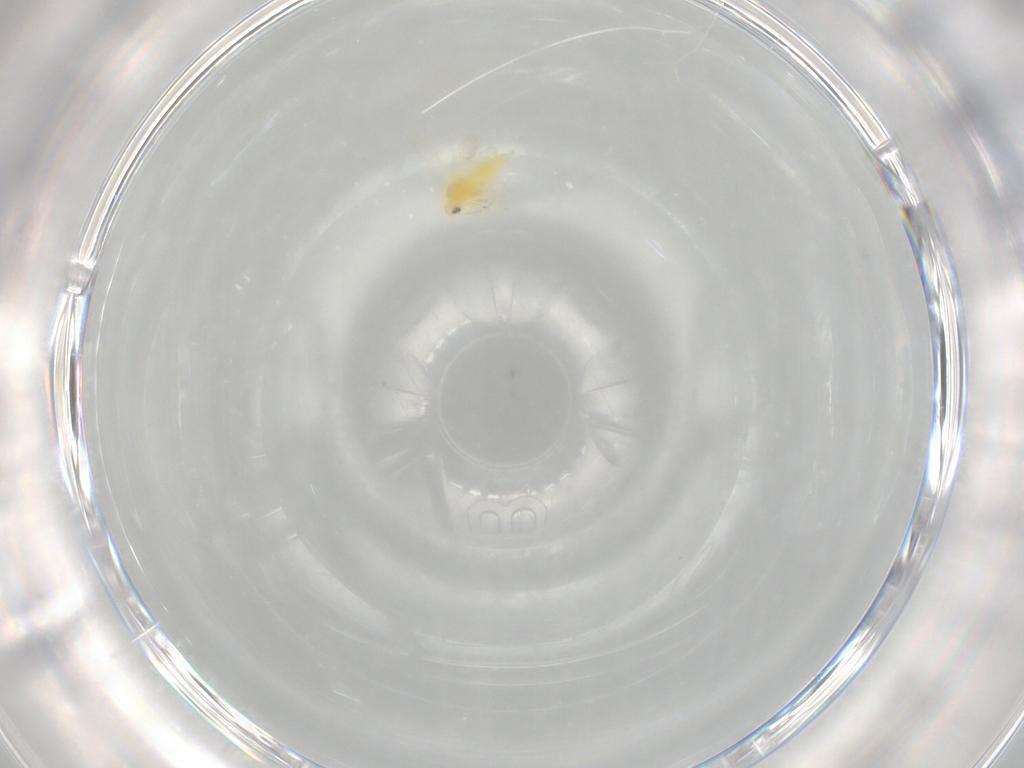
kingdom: Animalia
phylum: Arthropoda
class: Insecta
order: Hemiptera
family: Aleyrodidae
